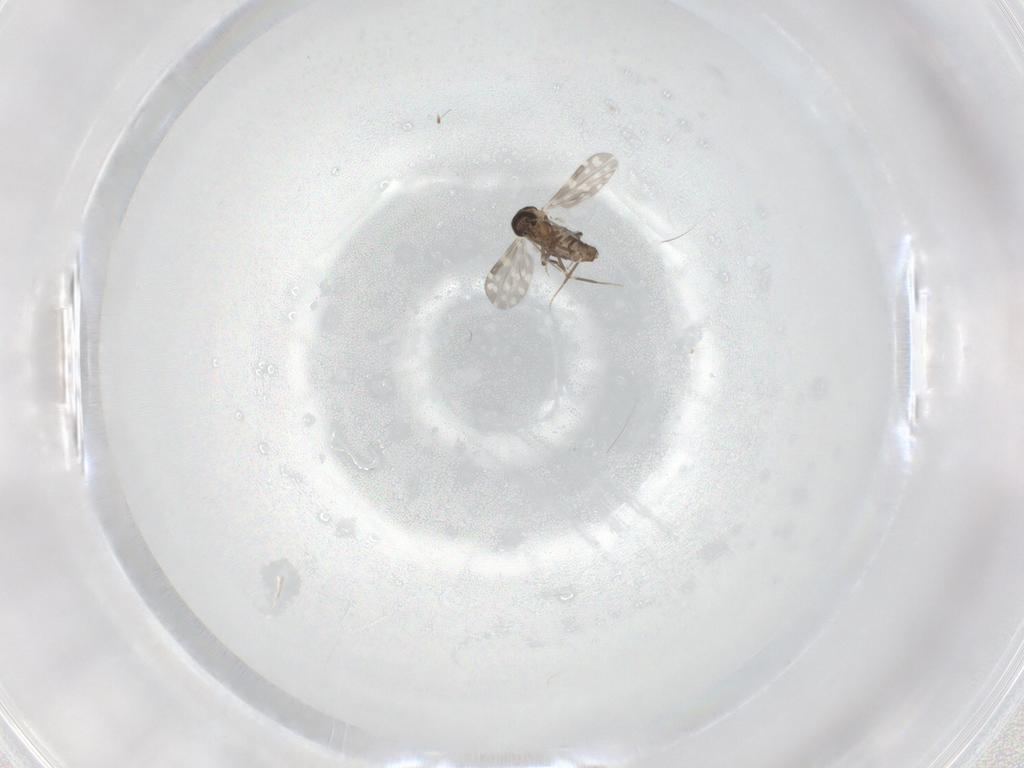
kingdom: Animalia
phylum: Arthropoda
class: Insecta
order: Diptera
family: Ceratopogonidae
